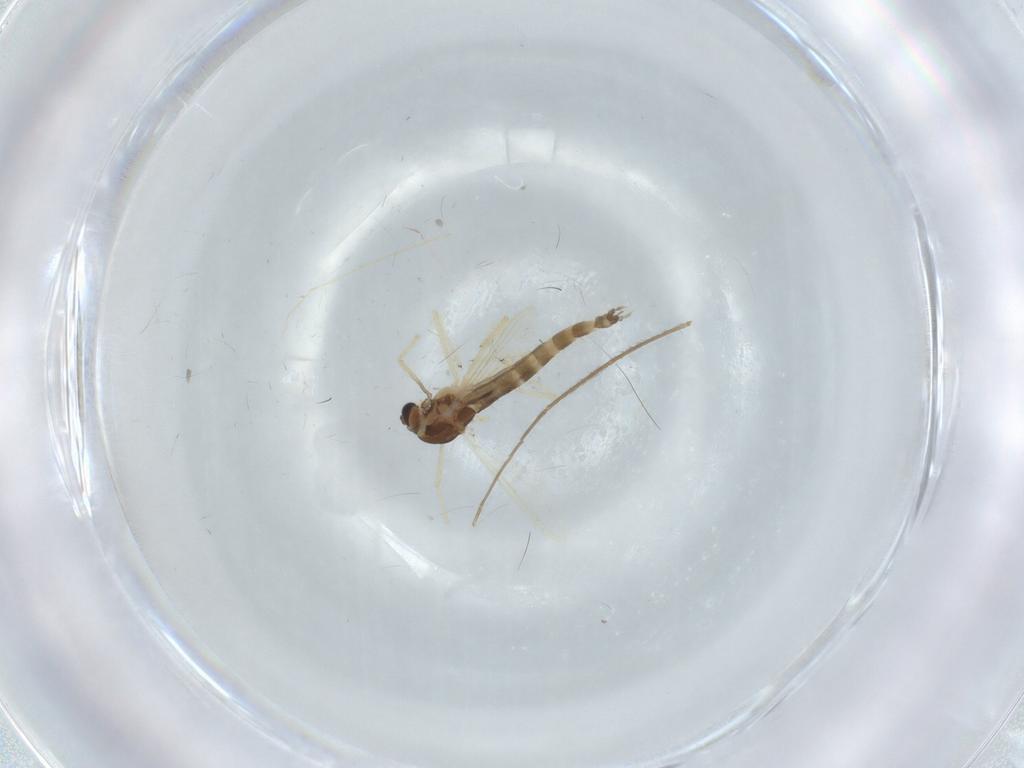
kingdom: Animalia
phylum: Arthropoda
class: Insecta
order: Diptera
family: Chironomidae
